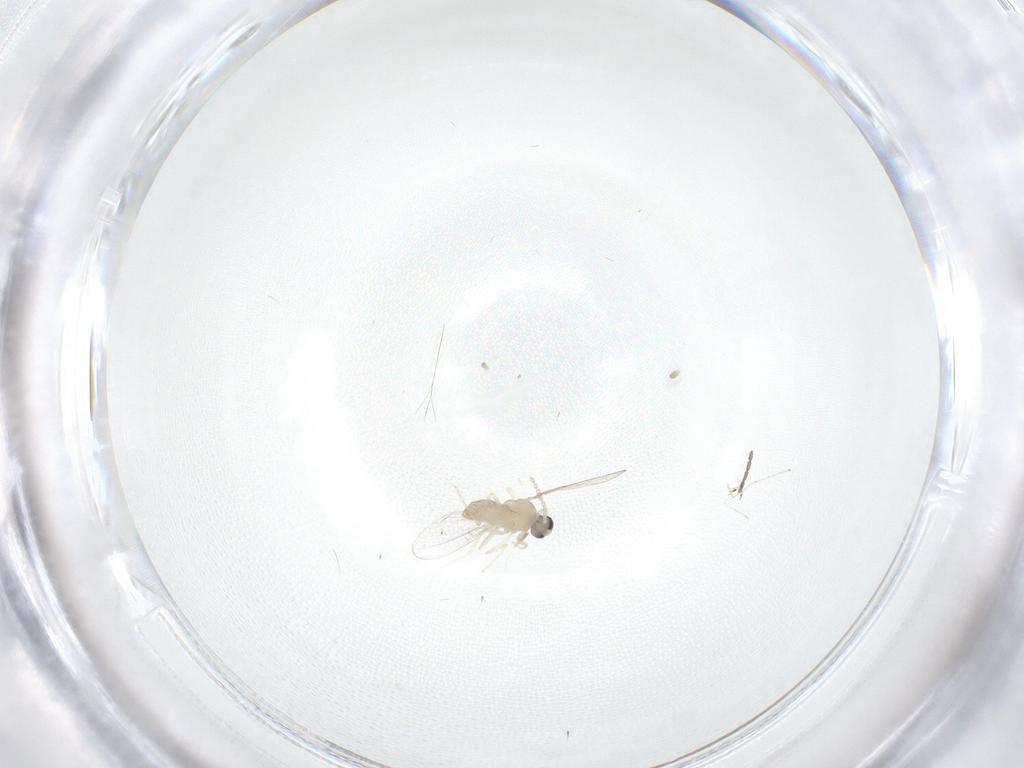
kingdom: Animalia
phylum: Arthropoda
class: Insecta
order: Diptera
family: Cecidomyiidae
